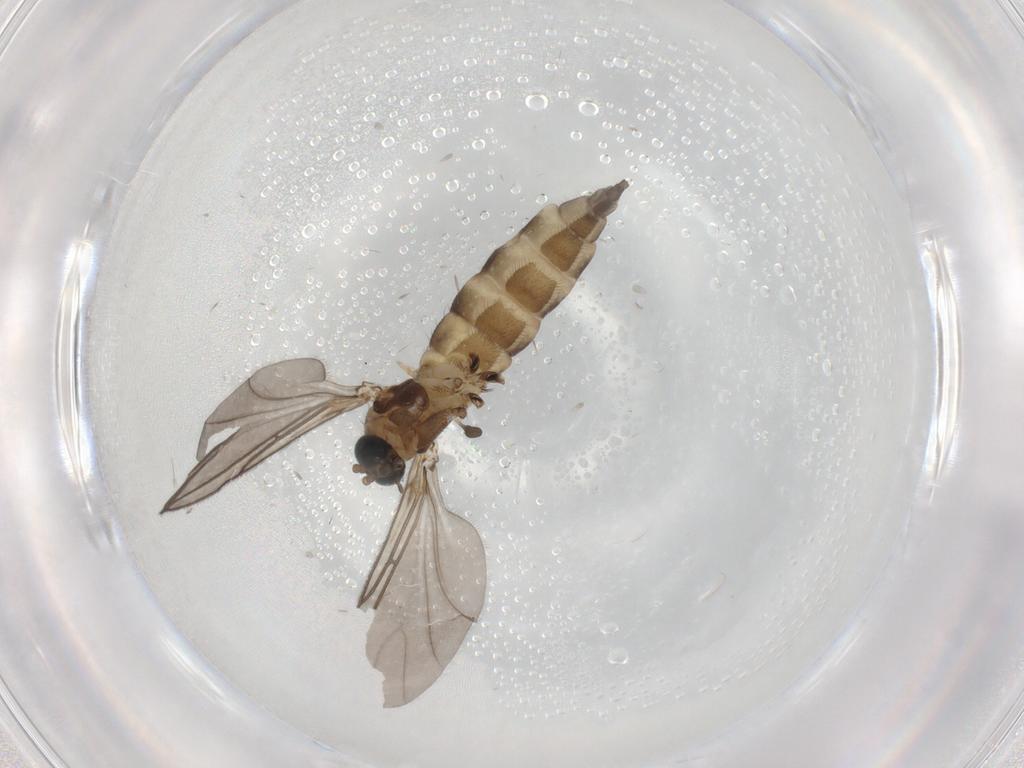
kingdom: Animalia
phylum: Arthropoda
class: Insecta
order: Diptera
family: Sciaridae
